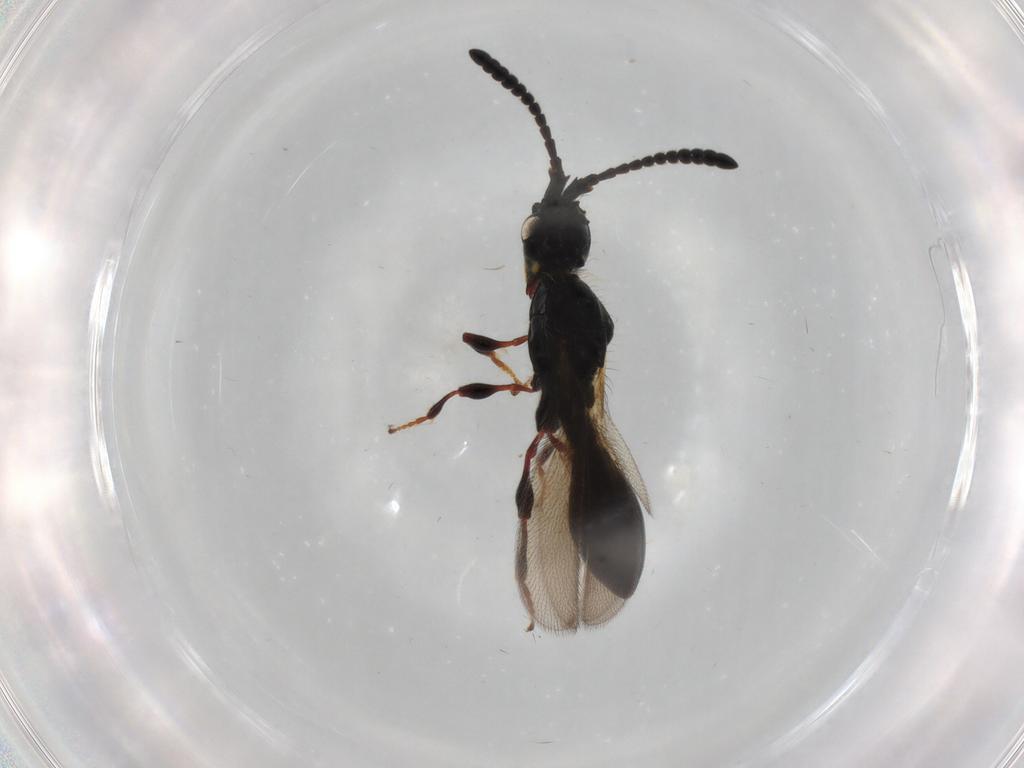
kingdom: Animalia
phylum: Arthropoda
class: Insecta
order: Hymenoptera
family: Diapriidae
